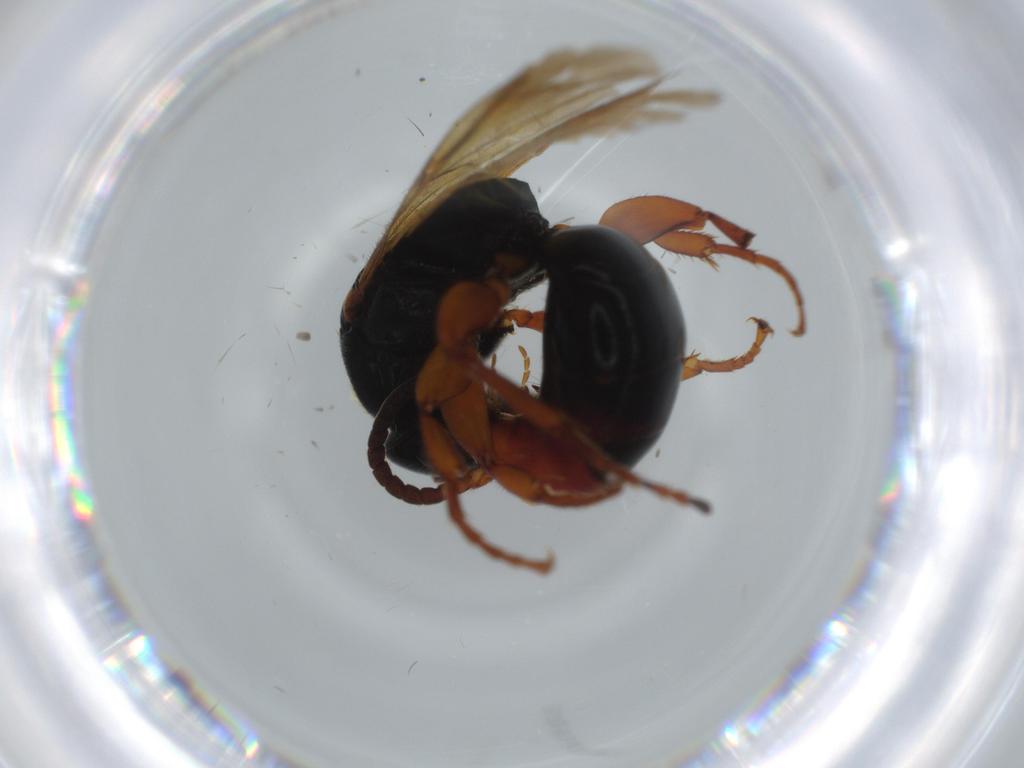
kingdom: Animalia
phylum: Arthropoda
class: Insecta
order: Hymenoptera
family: Bethylidae
